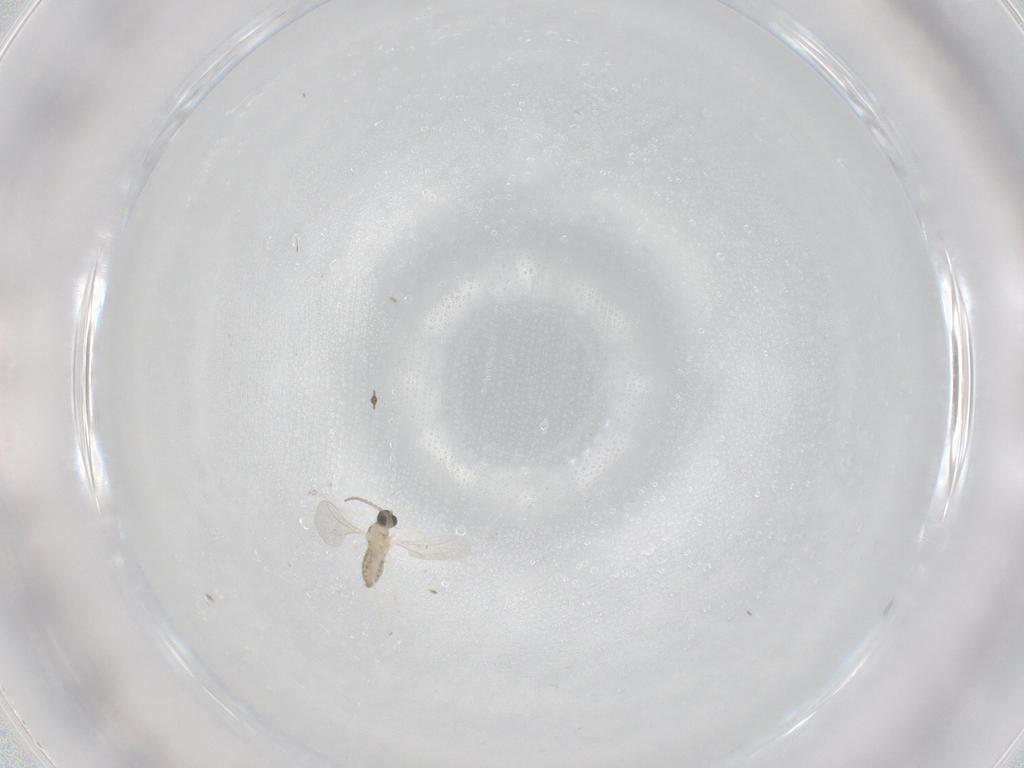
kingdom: Animalia
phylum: Arthropoda
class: Insecta
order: Diptera
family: Cecidomyiidae
